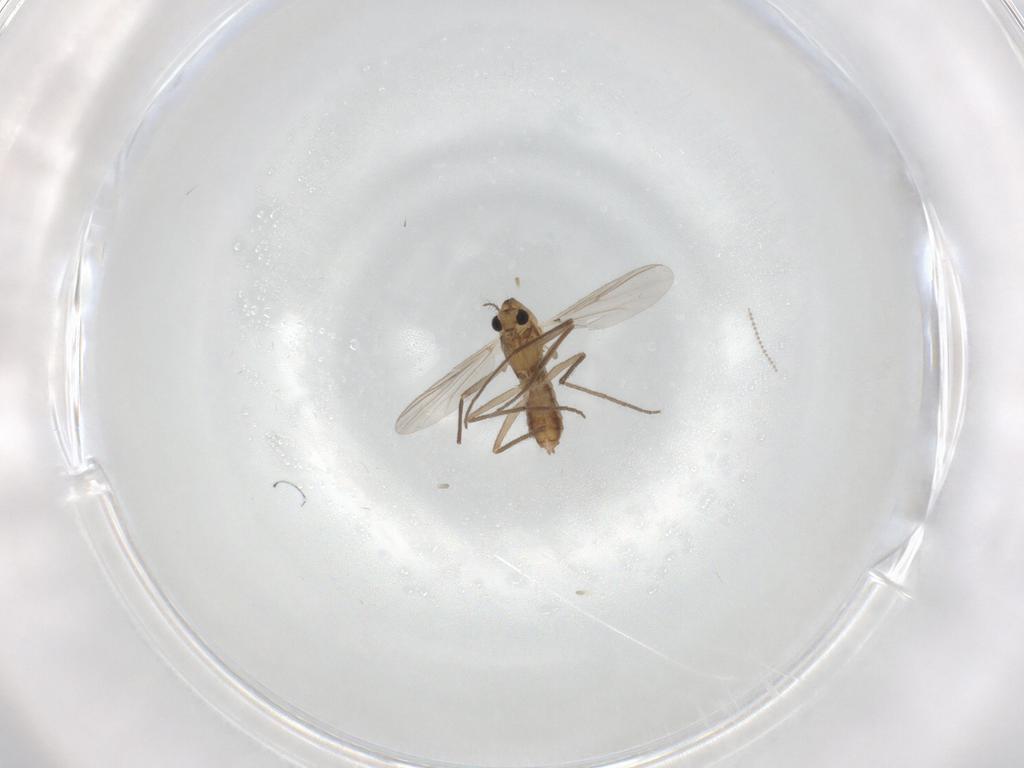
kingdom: Animalia
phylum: Arthropoda
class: Insecta
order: Diptera
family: Chironomidae
